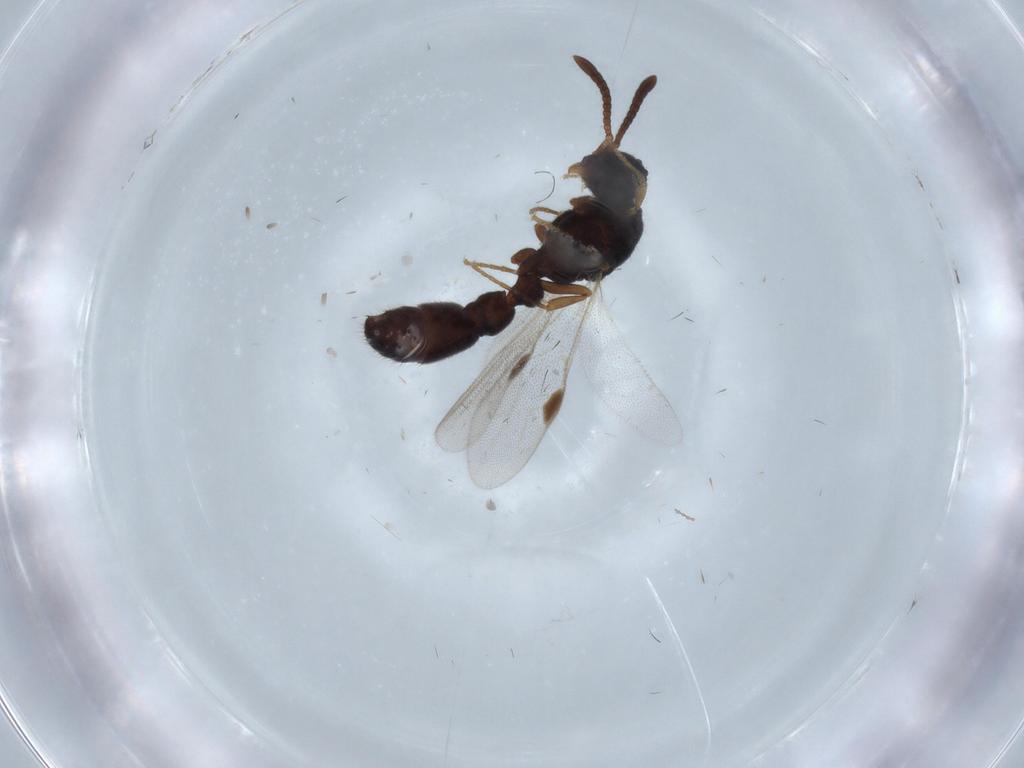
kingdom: Animalia
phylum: Arthropoda
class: Insecta
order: Hymenoptera
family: Formicidae
